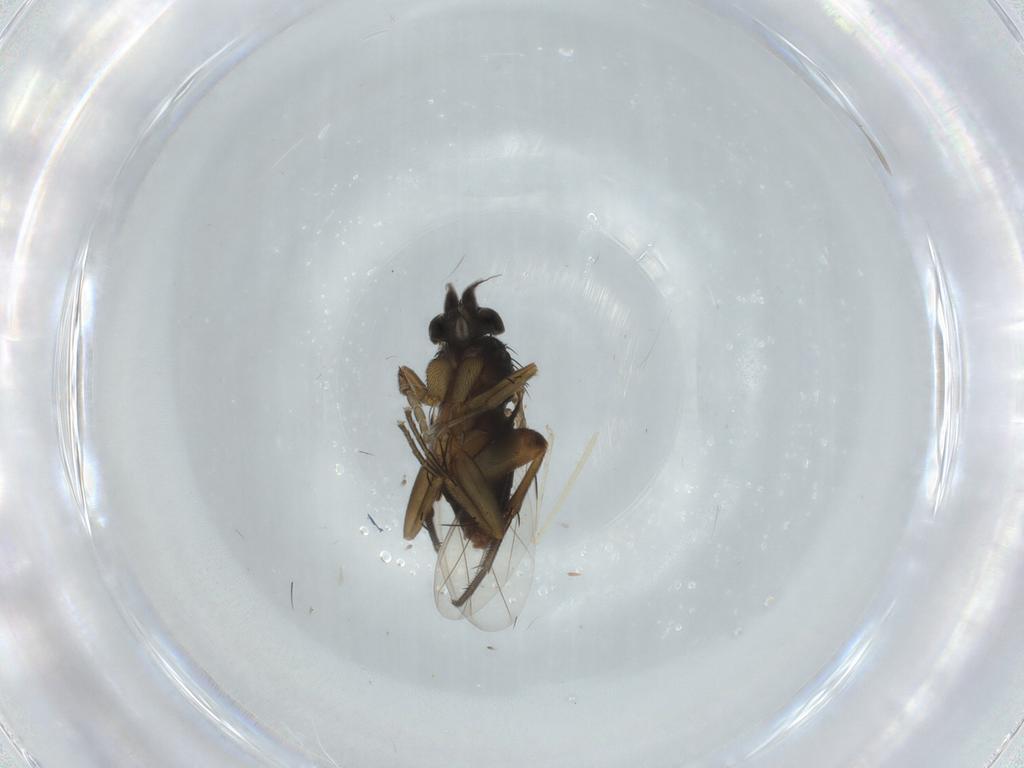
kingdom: Animalia
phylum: Arthropoda
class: Insecta
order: Diptera
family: Phoridae
